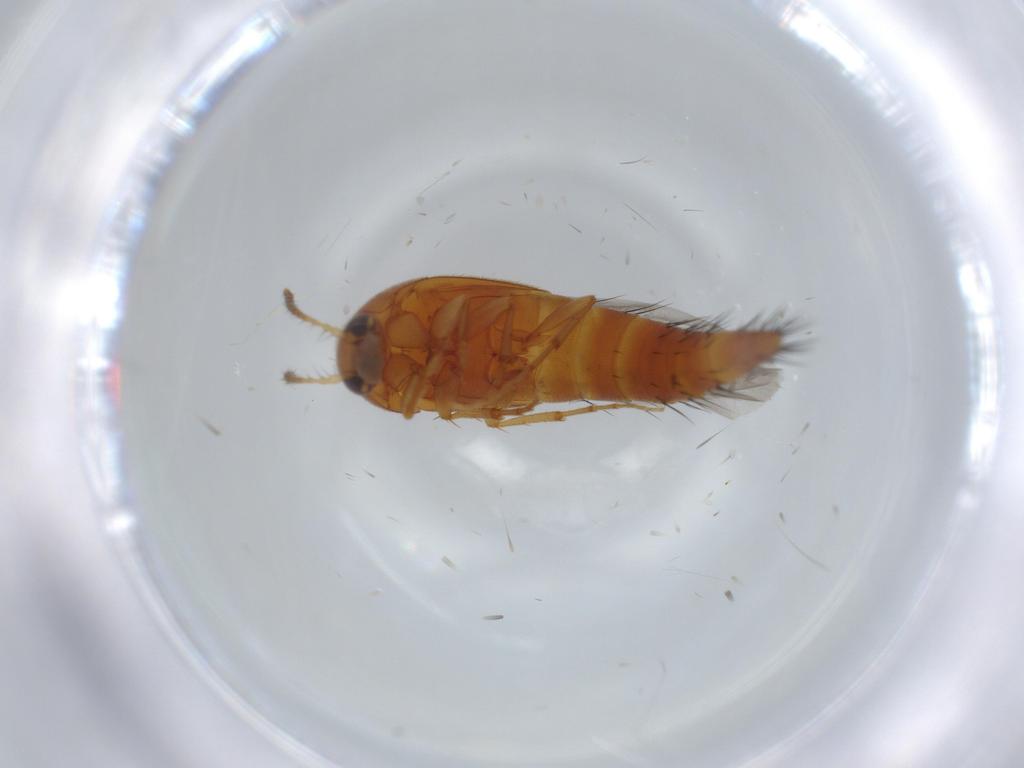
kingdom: Animalia
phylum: Arthropoda
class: Insecta
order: Coleoptera
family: Staphylinidae
